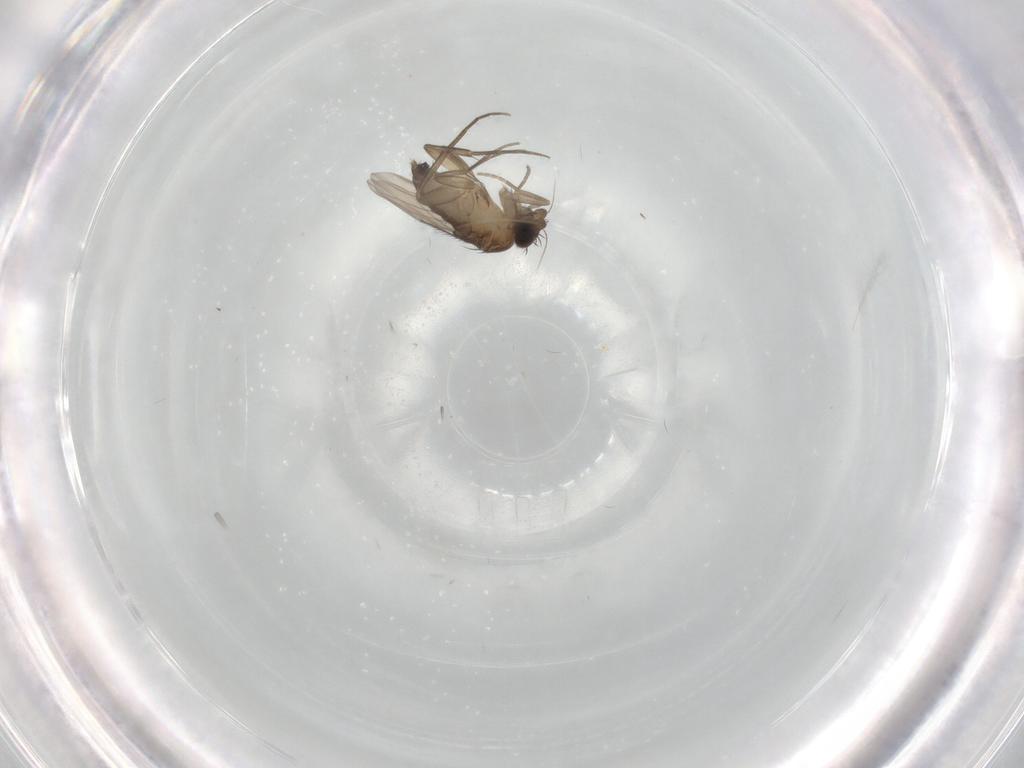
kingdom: Animalia
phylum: Arthropoda
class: Insecta
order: Diptera
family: Phoridae
